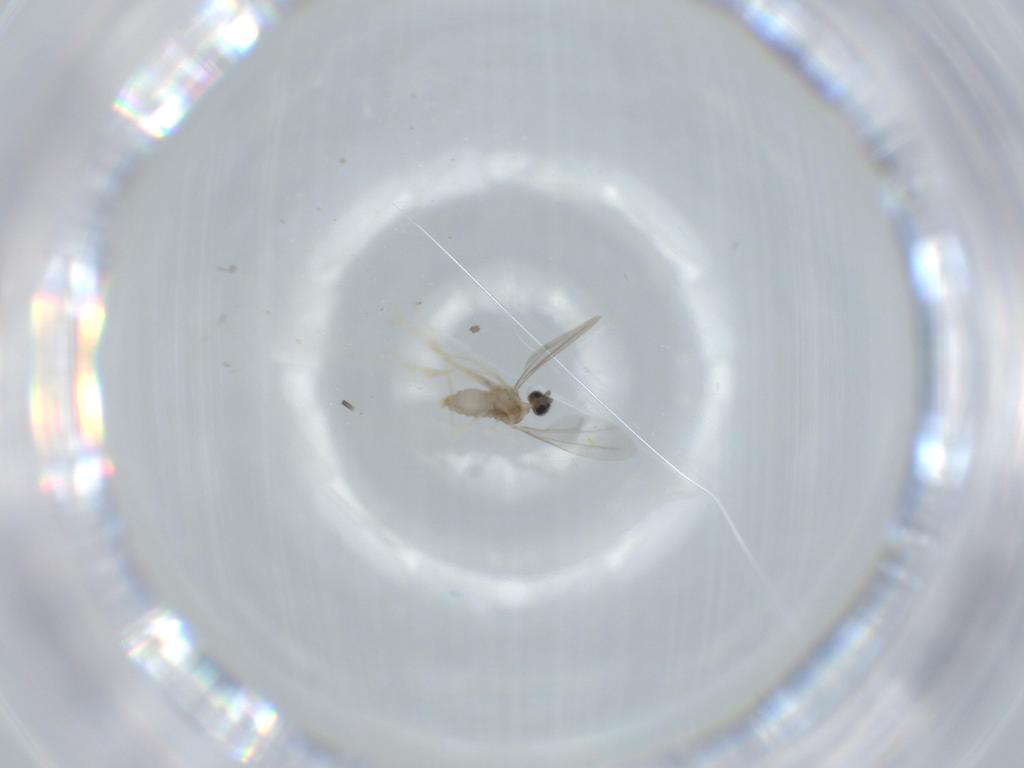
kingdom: Animalia
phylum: Arthropoda
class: Insecta
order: Diptera
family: Cecidomyiidae
